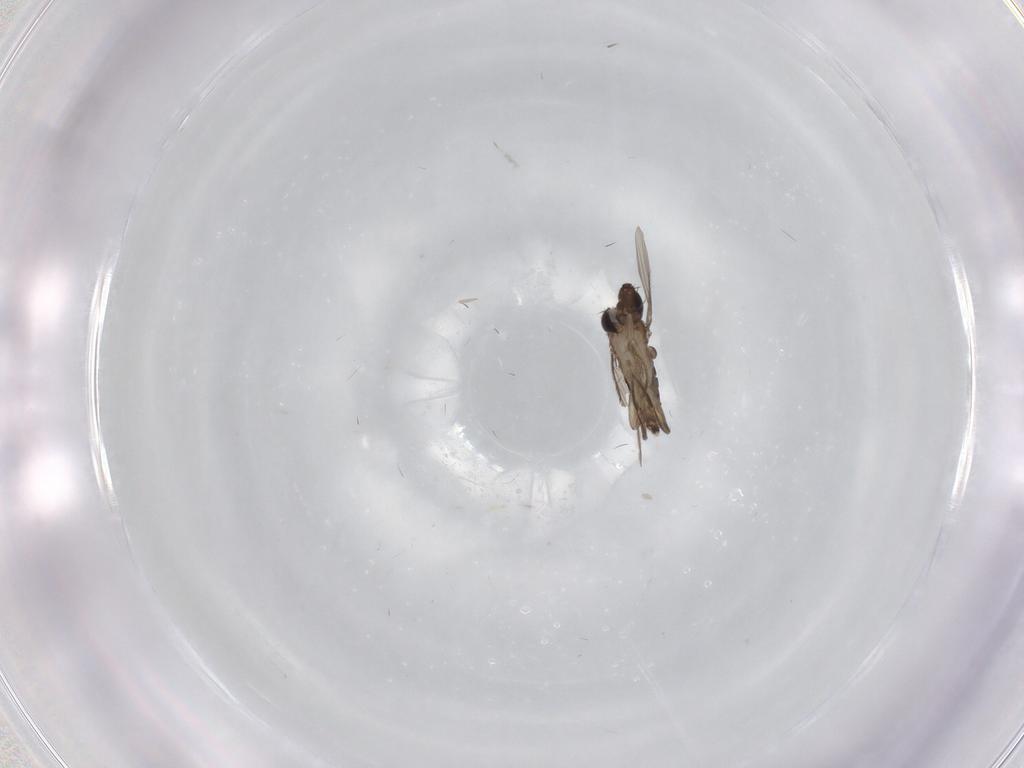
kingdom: Animalia
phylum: Arthropoda
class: Insecta
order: Diptera
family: Phoridae
